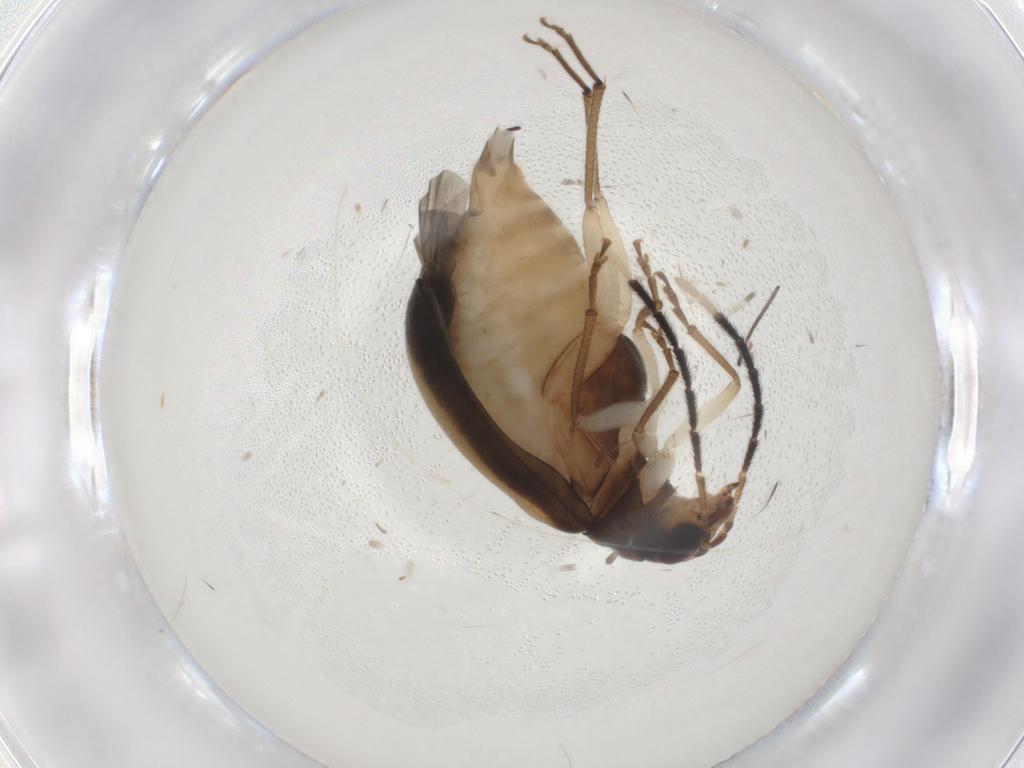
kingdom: Animalia
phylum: Arthropoda
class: Insecta
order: Coleoptera
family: Chrysomelidae
